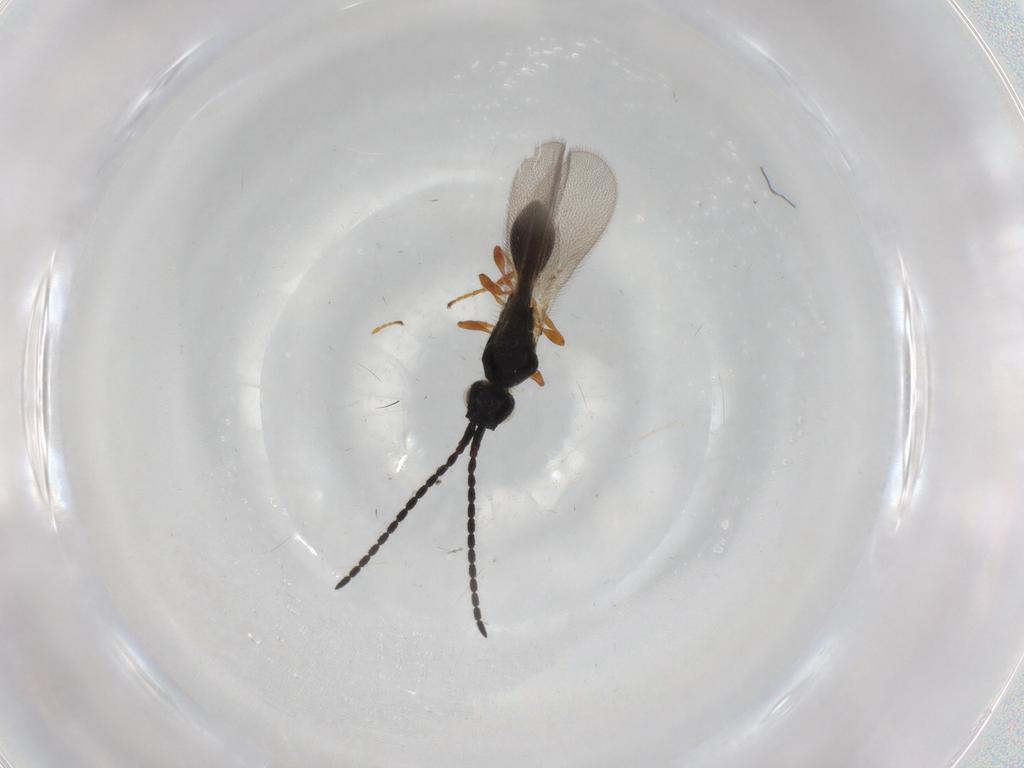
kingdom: Animalia
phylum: Arthropoda
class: Insecta
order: Hymenoptera
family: Diapriidae
